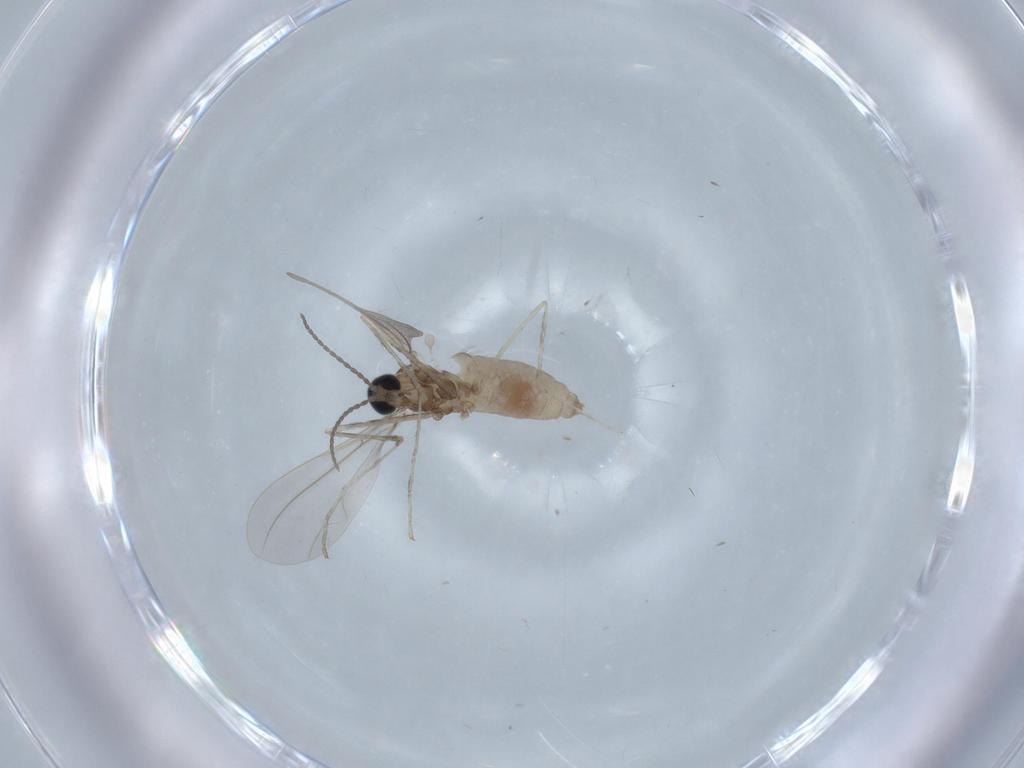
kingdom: Animalia
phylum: Arthropoda
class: Insecta
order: Diptera
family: Cecidomyiidae
